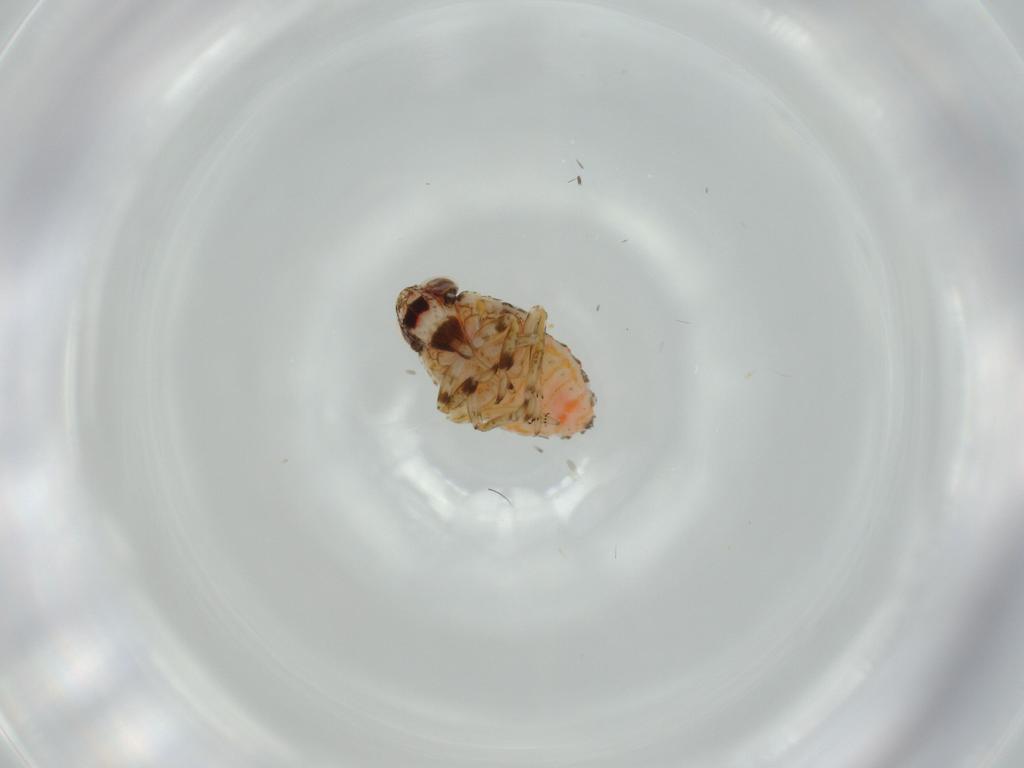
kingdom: Animalia
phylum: Arthropoda
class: Insecta
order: Hemiptera
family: Issidae
